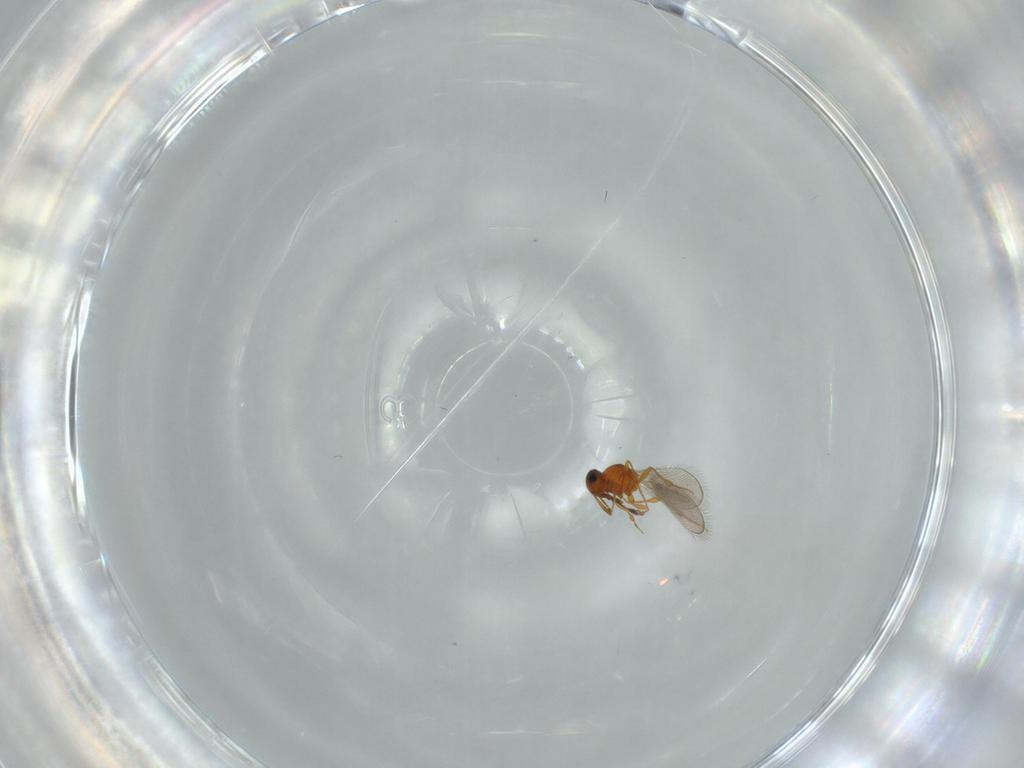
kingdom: Animalia
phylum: Arthropoda
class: Insecta
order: Hymenoptera
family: Platygastridae
